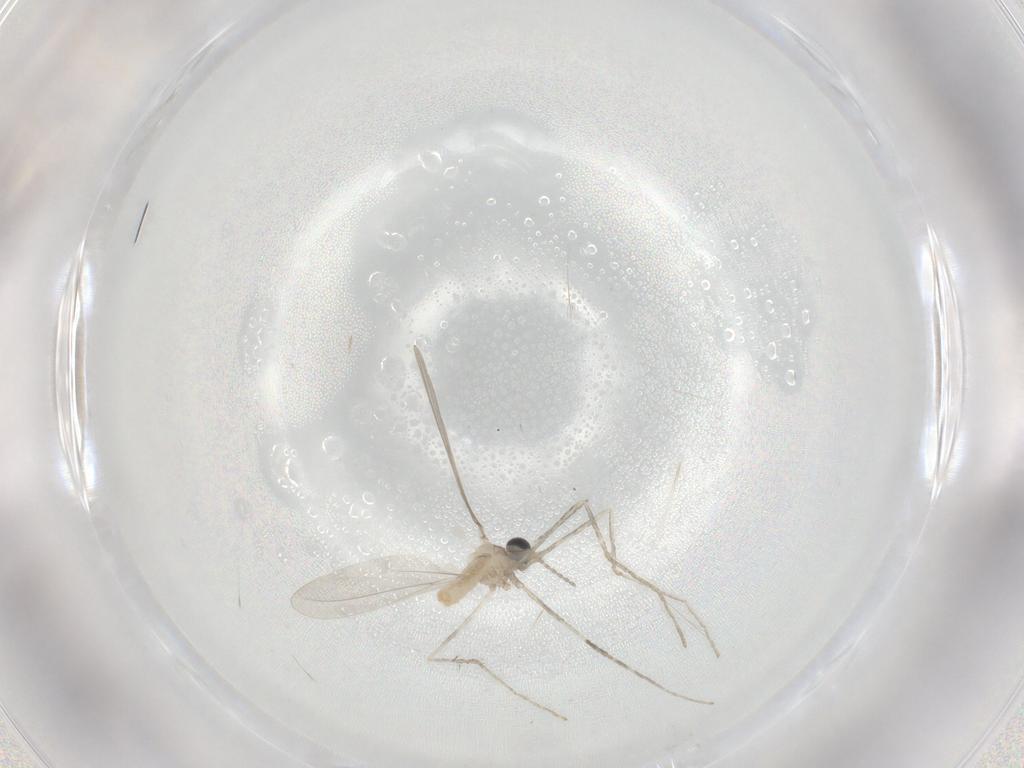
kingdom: Animalia
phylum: Arthropoda
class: Insecta
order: Diptera
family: Cecidomyiidae
